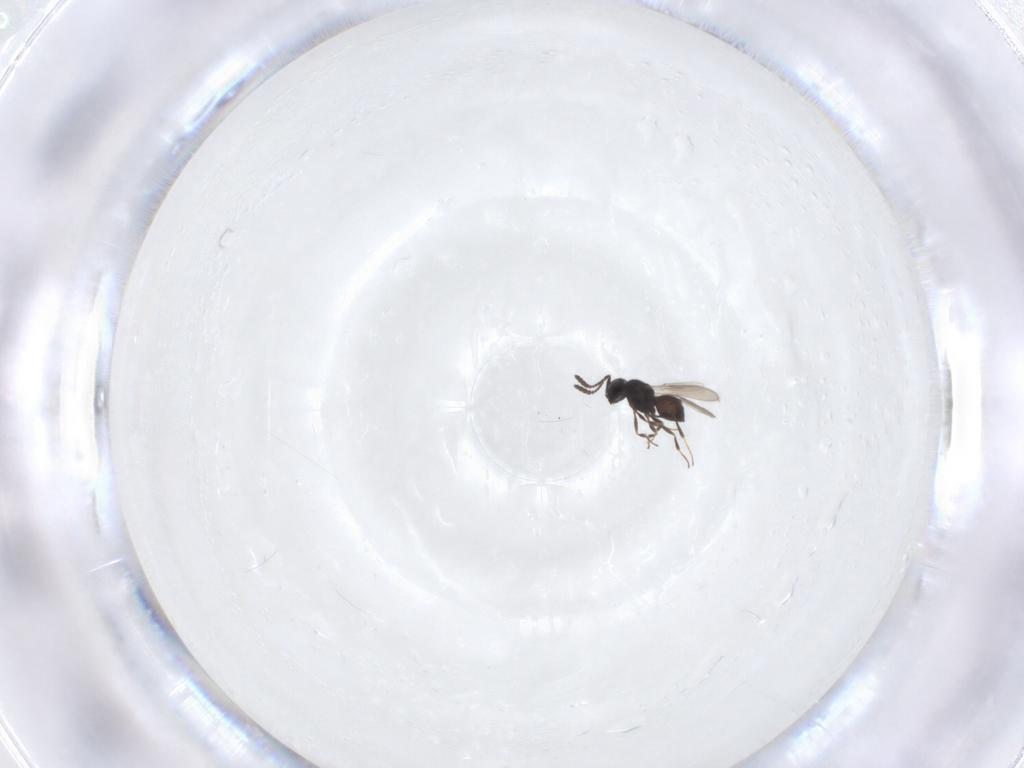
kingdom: Animalia
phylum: Arthropoda
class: Insecta
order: Hymenoptera
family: Scelionidae
